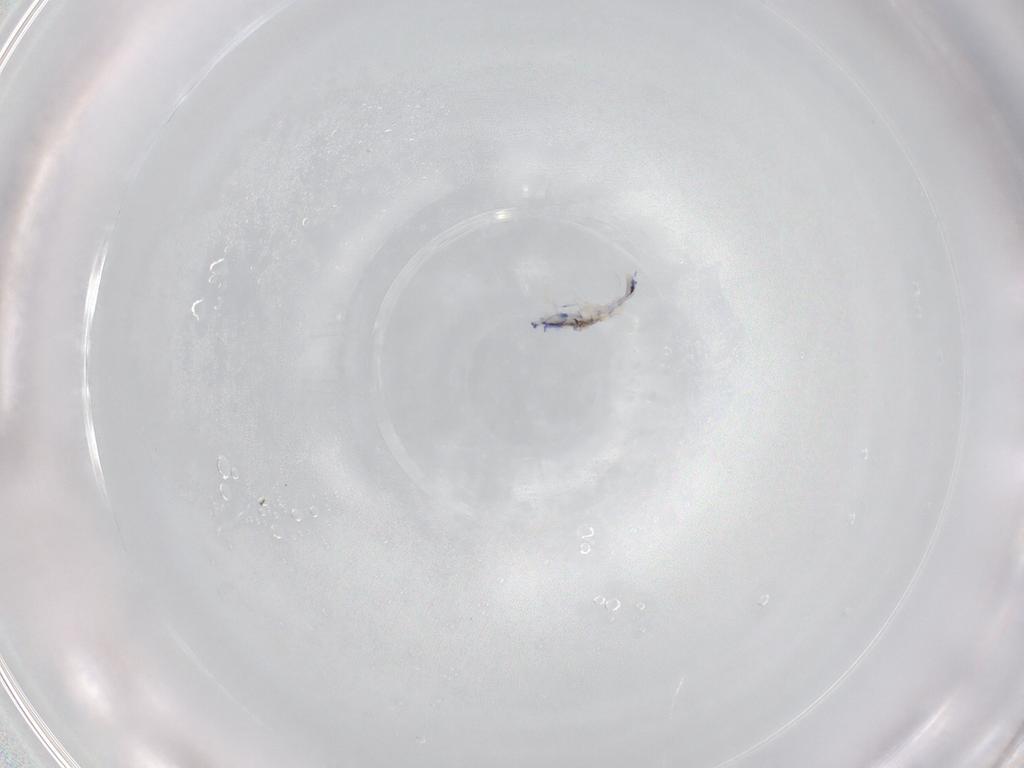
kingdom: Animalia
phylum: Arthropoda
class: Collembola
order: Entomobryomorpha
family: Entomobryidae
